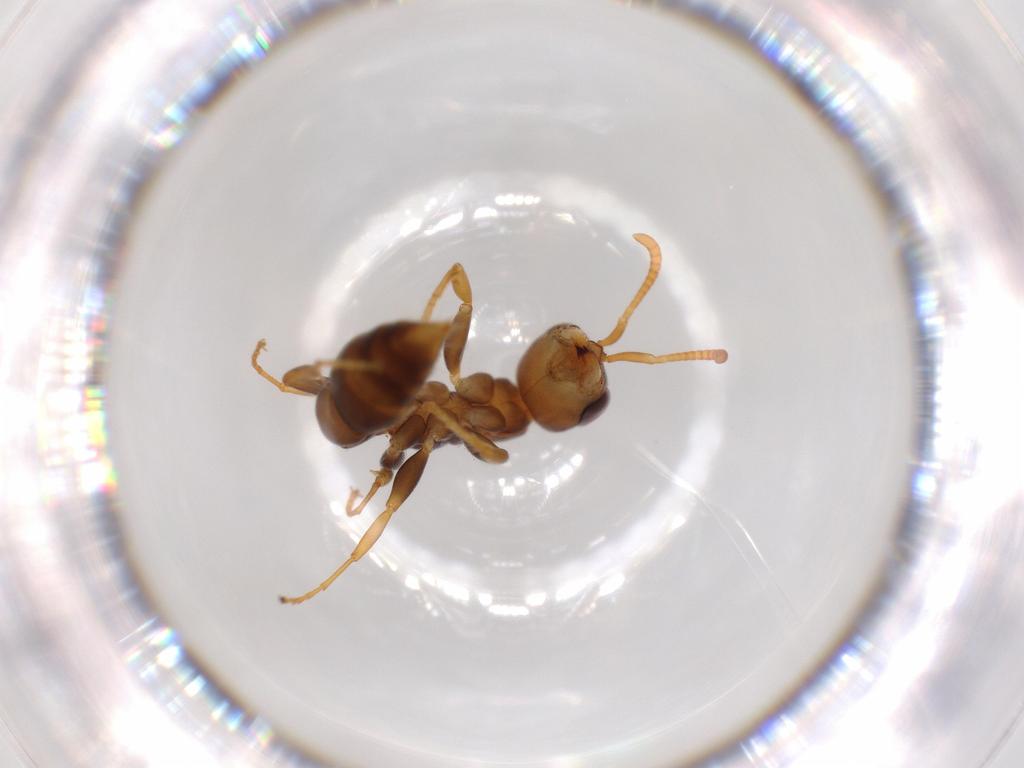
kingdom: Animalia
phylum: Arthropoda
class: Insecta
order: Hymenoptera
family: Formicidae
